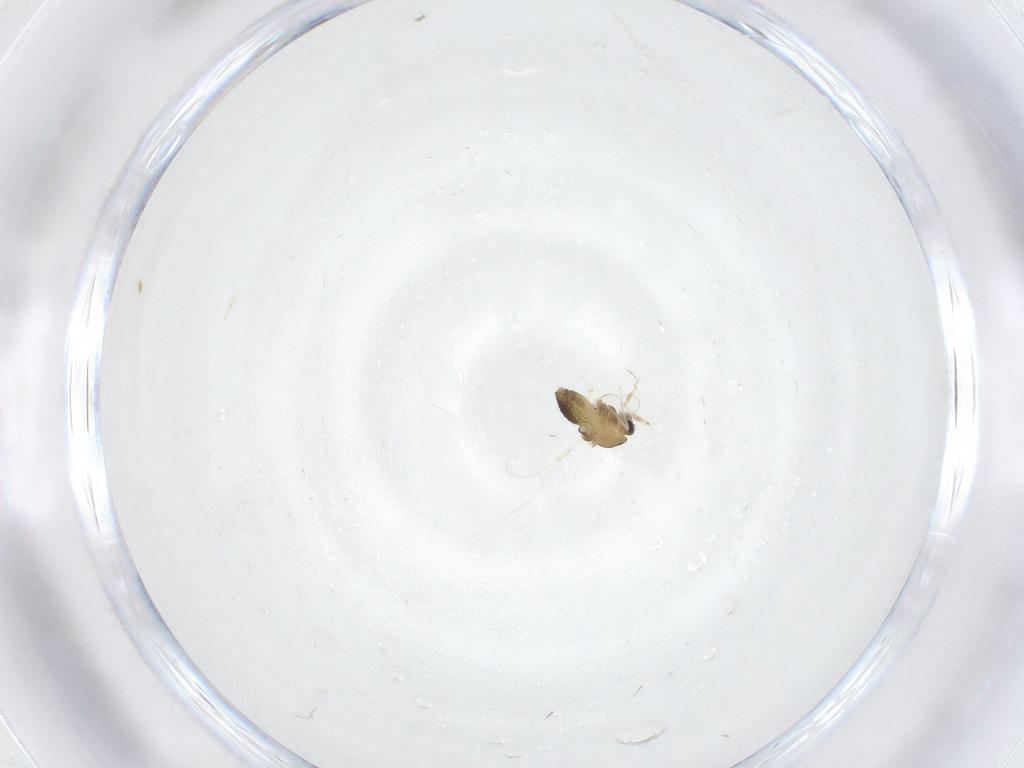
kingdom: Animalia
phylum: Arthropoda
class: Insecta
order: Diptera
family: Chironomidae
